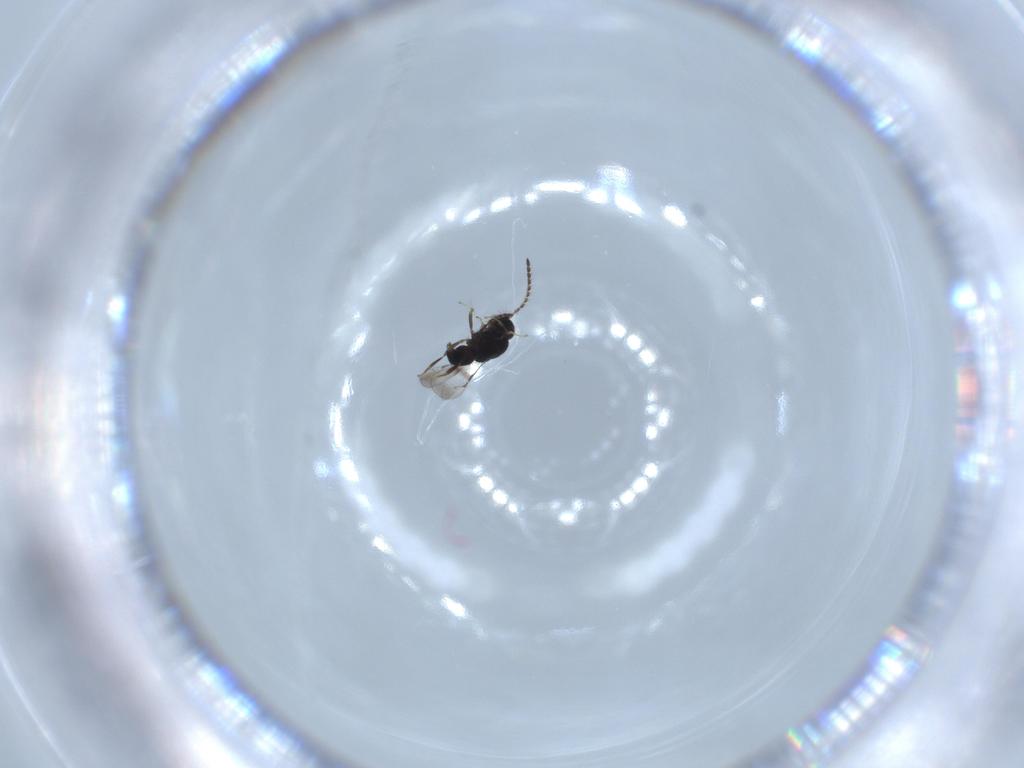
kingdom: Animalia
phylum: Arthropoda
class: Insecta
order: Hymenoptera
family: Ceraphronidae
